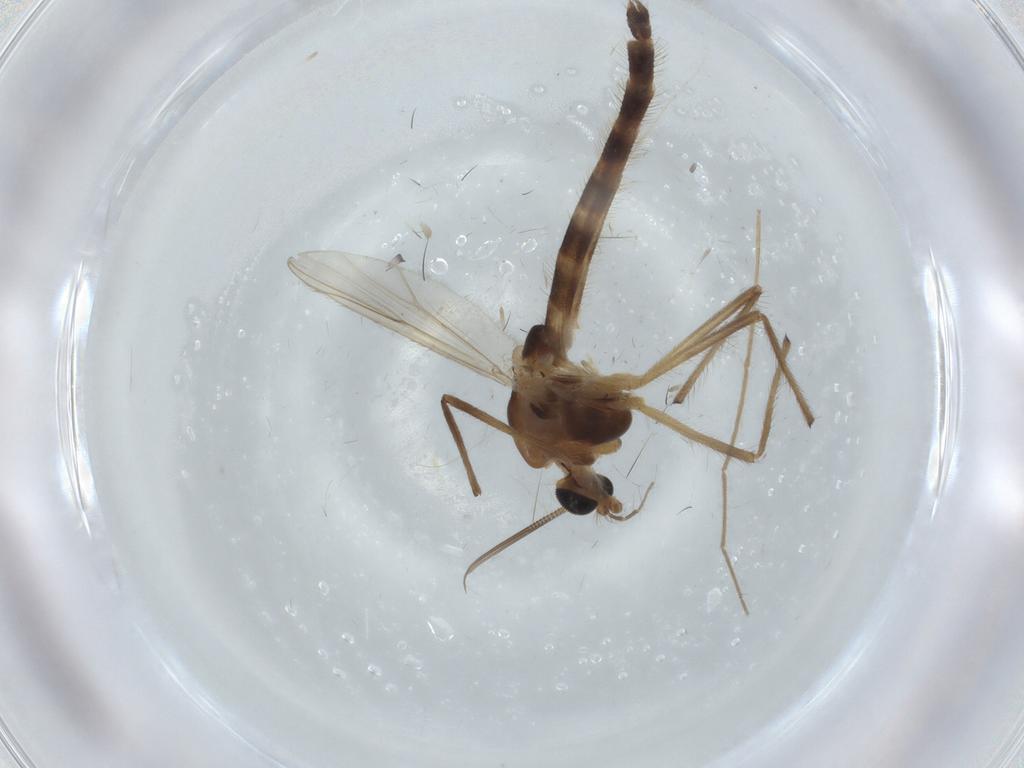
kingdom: Animalia
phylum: Arthropoda
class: Insecta
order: Diptera
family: Chironomidae
